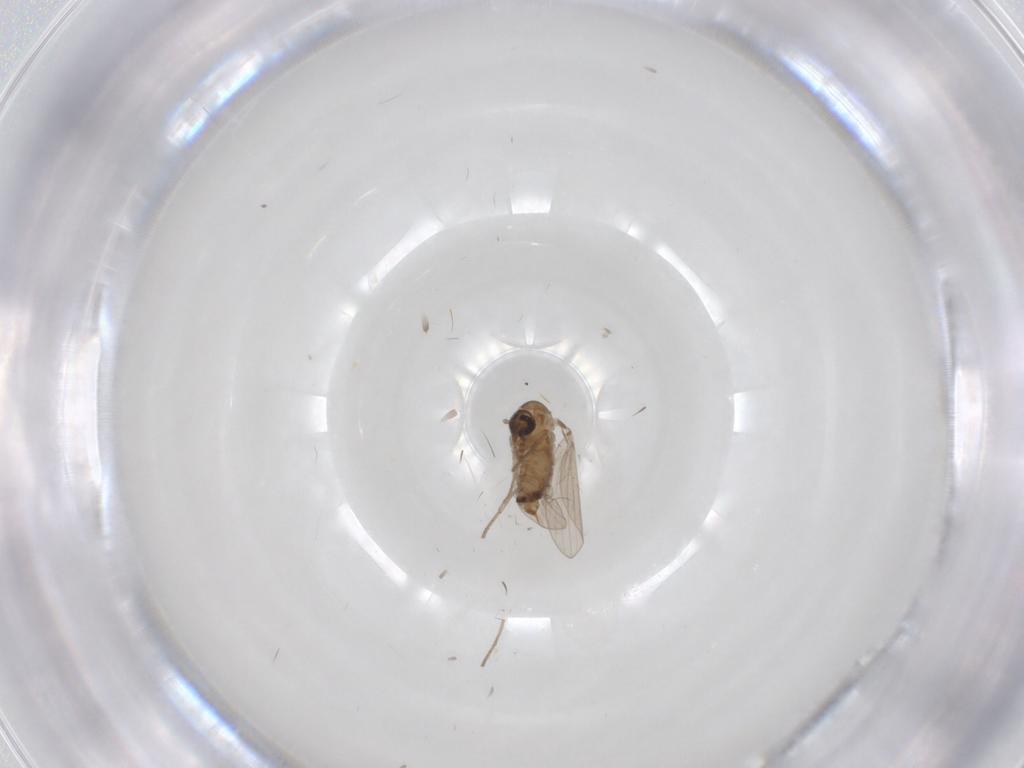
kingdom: Animalia
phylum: Arthropoda
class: Insecta
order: Diptera
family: Psychodidae
